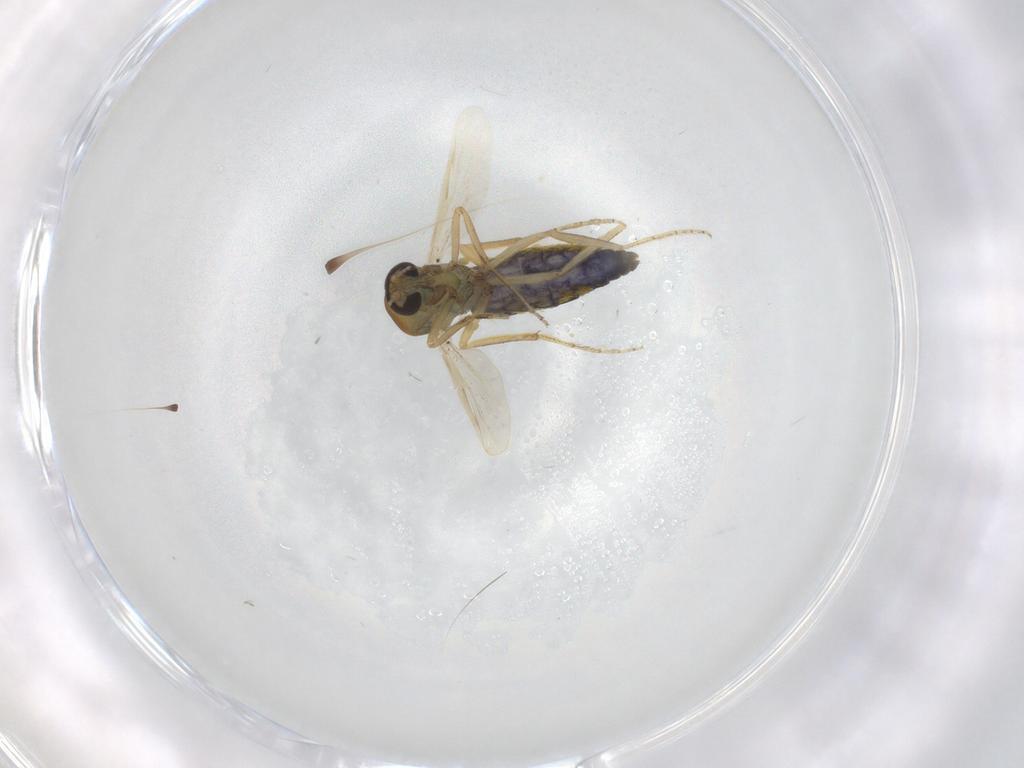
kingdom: Animalia
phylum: Arthropoda
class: Insecta
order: Diptera
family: Ceratopogonidae
